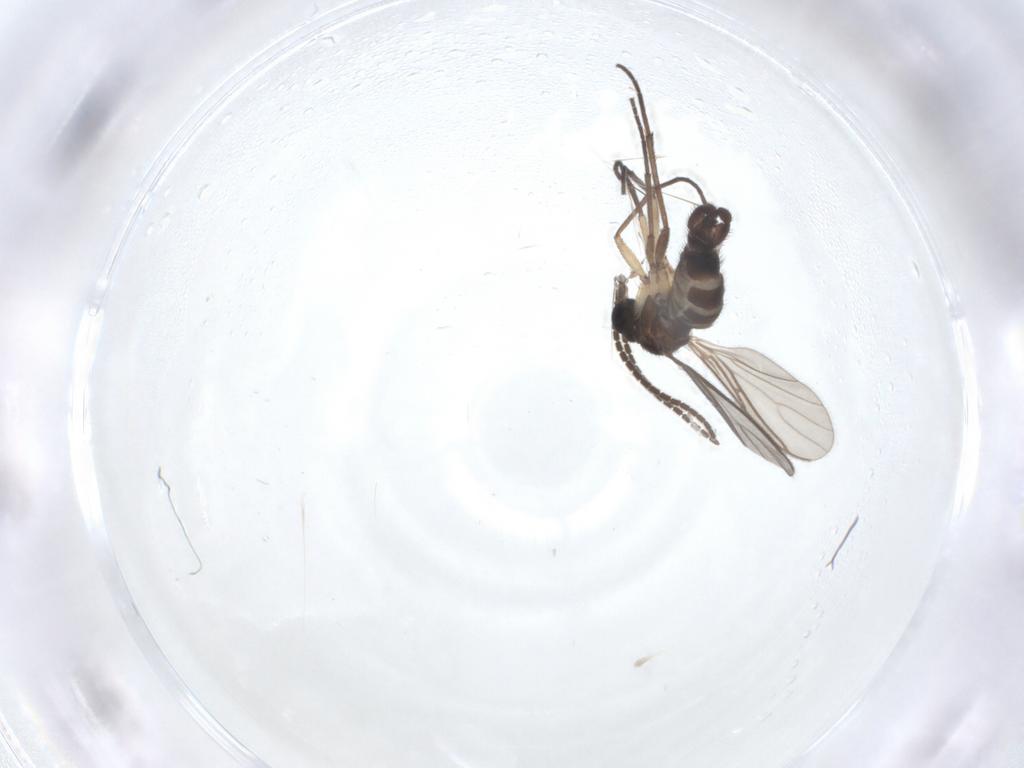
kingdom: Animalia
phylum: Arthropoda
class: Insecta
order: Diptera
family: Sciaridae
